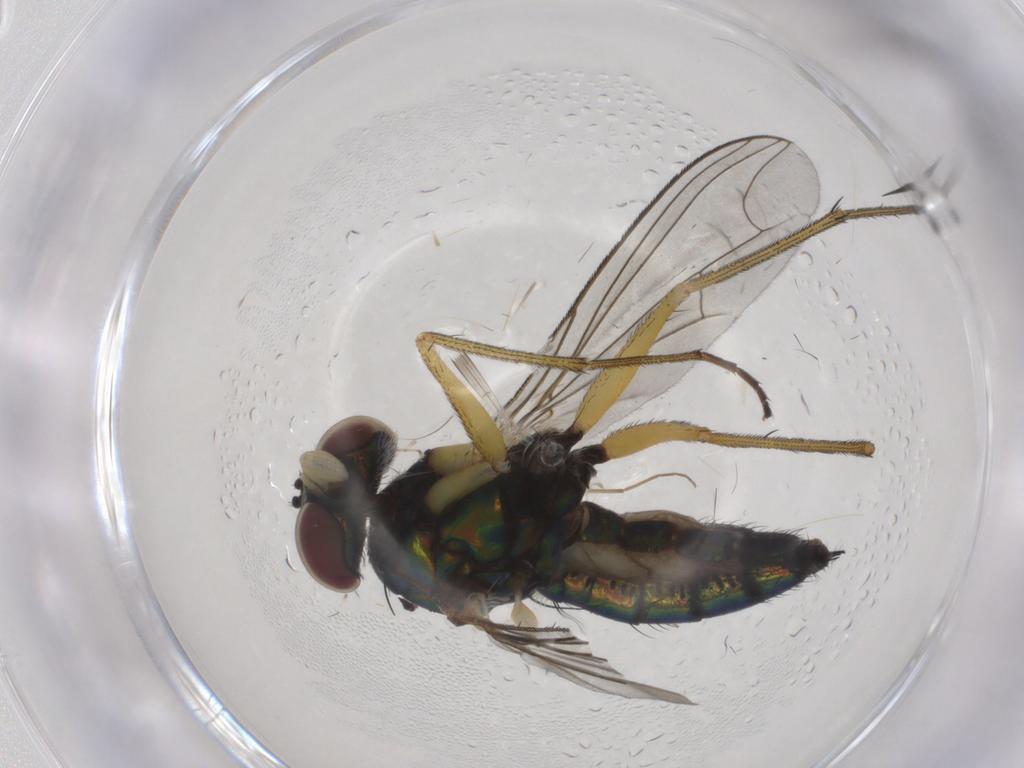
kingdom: Animalia
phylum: Arthropoda
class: Insecta
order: Diptera
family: Dolichopodidae
